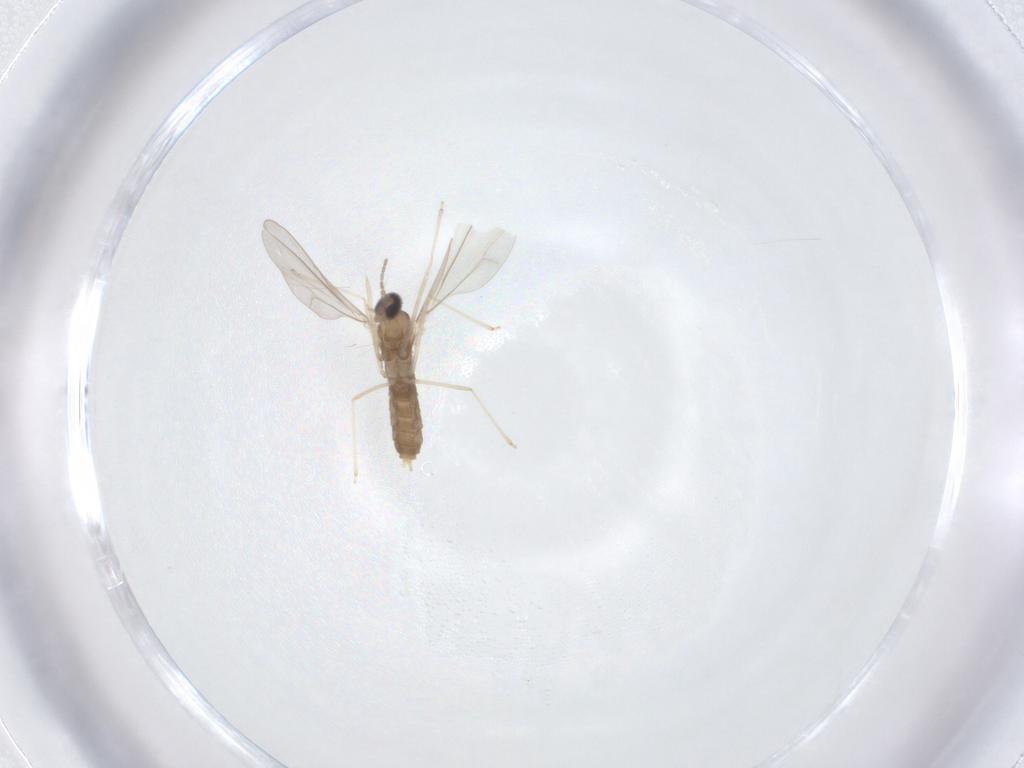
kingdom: Animalia
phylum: Arthropoda
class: Insecta
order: Diptera
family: Cecidomyiidae
